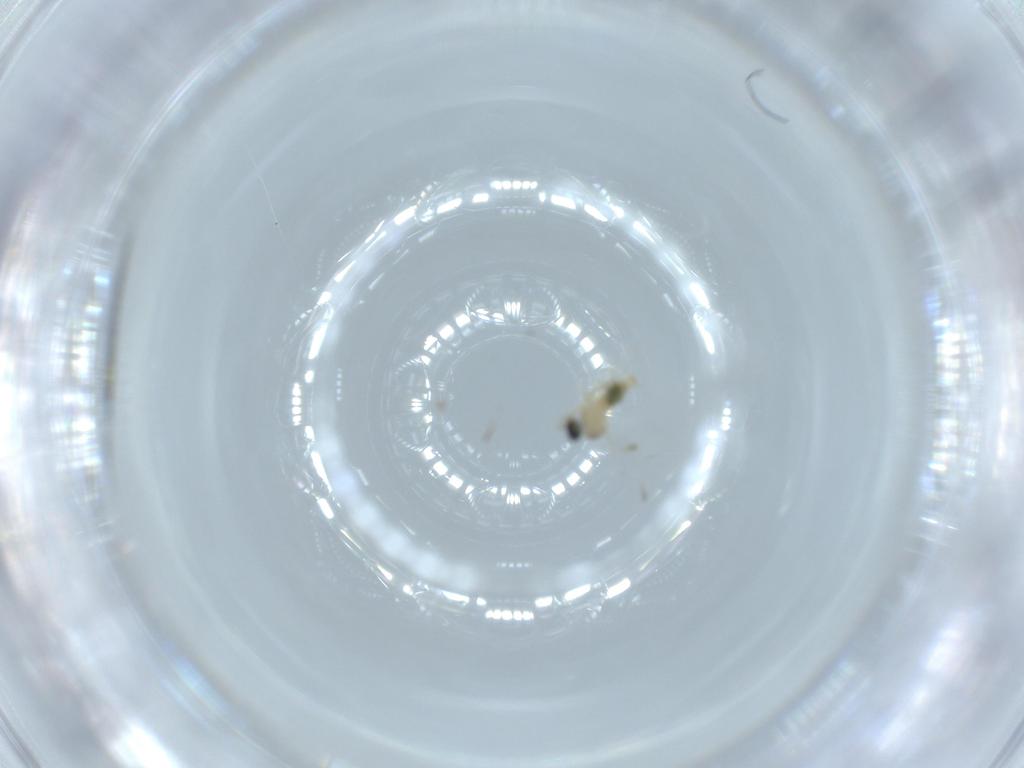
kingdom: Animalia
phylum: Arthropoda
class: Insecta
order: Diptera
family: Cecidomyiidae
